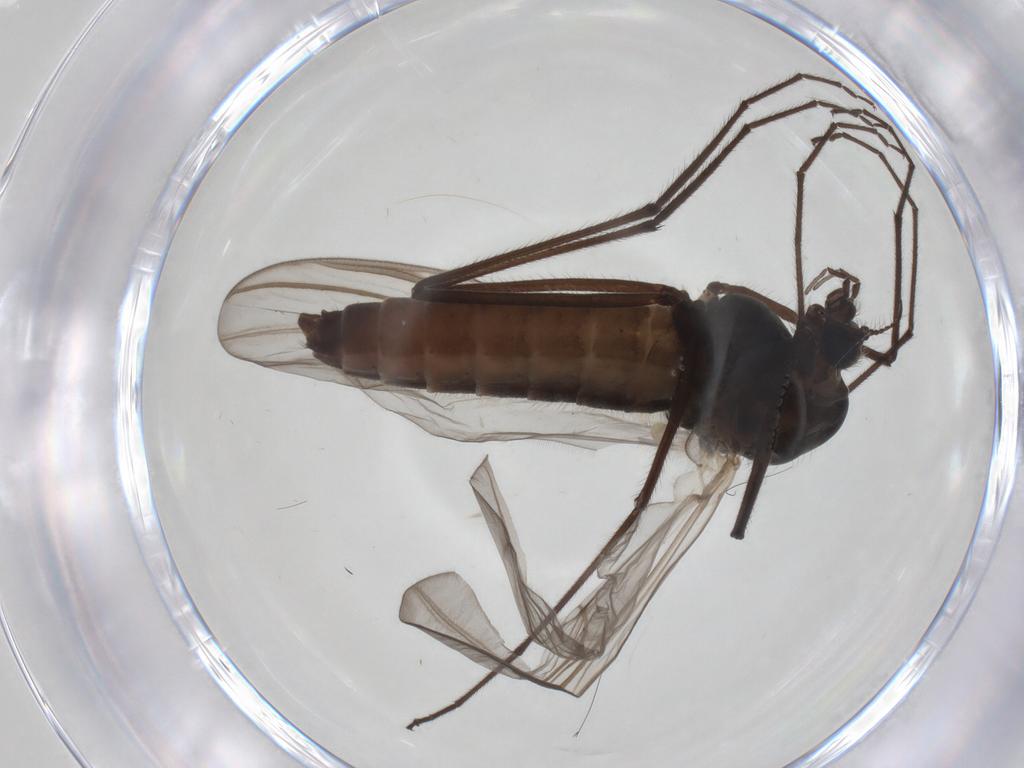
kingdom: Animalia
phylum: Arthropoda
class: Insecta
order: Diptera
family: Chironomidae
